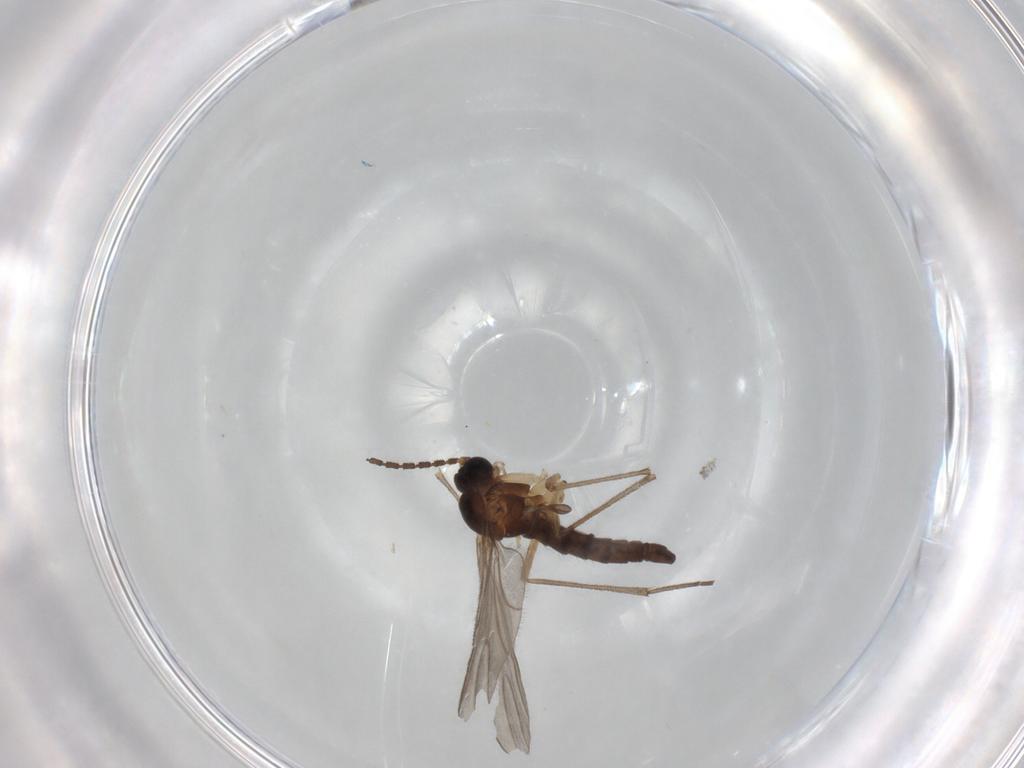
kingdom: Animalia
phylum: Arthropoda
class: Insecta
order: Diptera
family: Sciaridae
